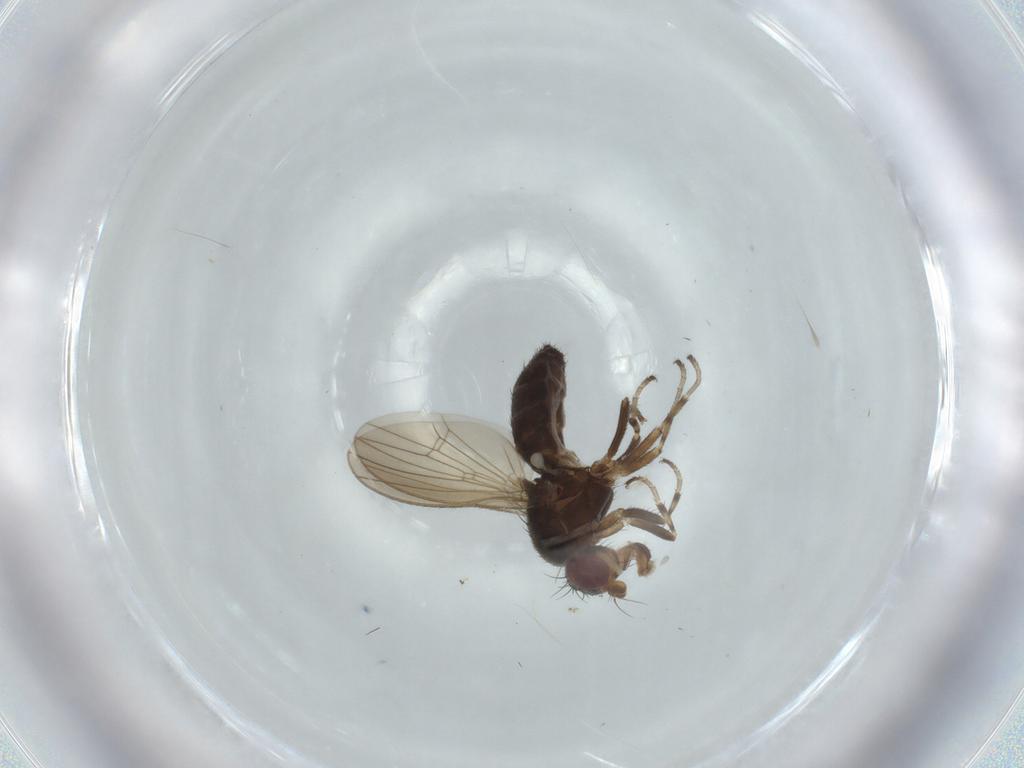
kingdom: Animalia
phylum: Arthropoda
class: Insecta
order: Diptera
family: Heleomyzidae
